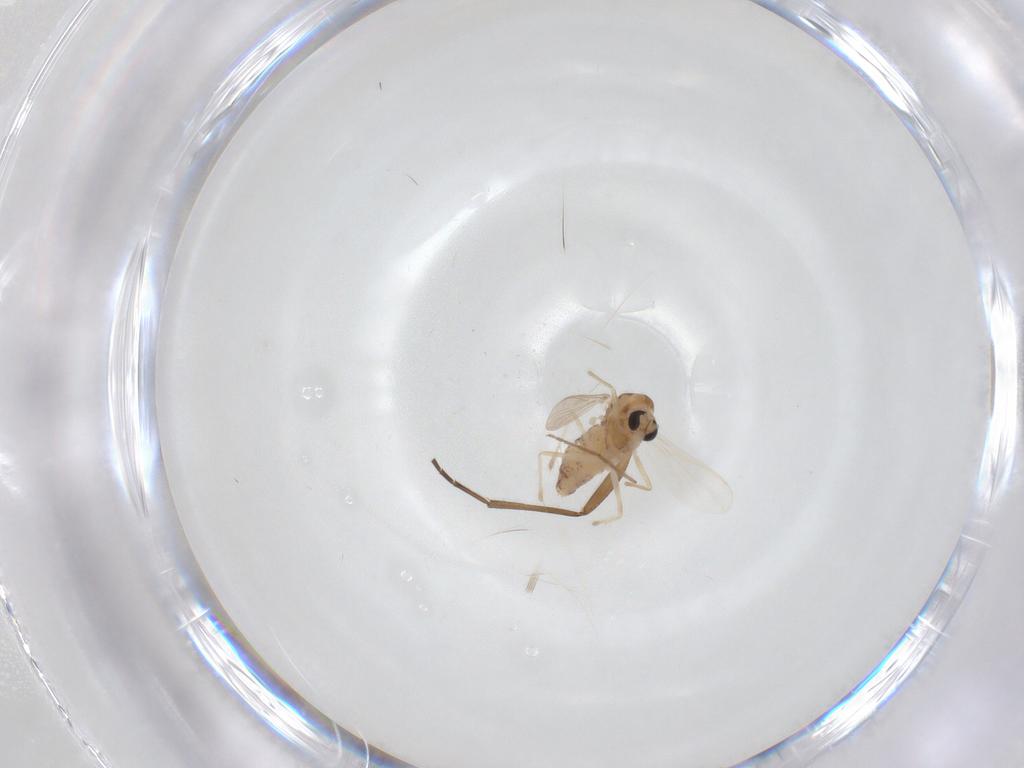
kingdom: Animalia
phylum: Arthropoda
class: Insecta
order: Diptera
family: Chironomidae
